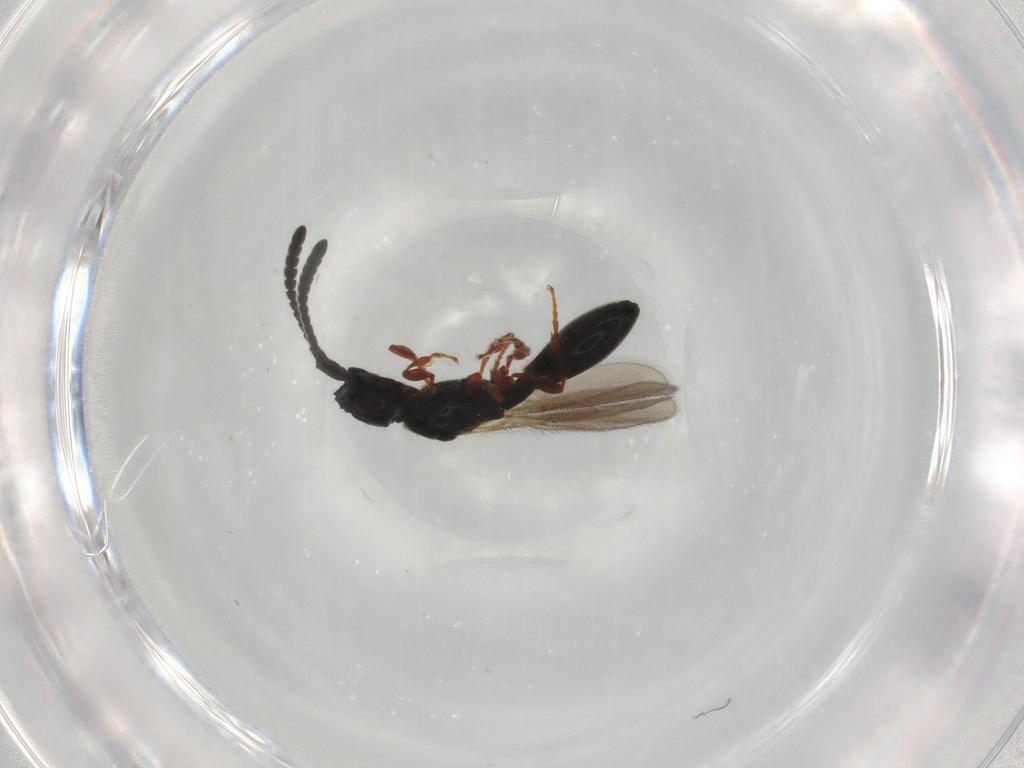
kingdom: Animalia
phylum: Arthropoda
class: Insecta
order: Hymenoptera
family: Diapriidae
